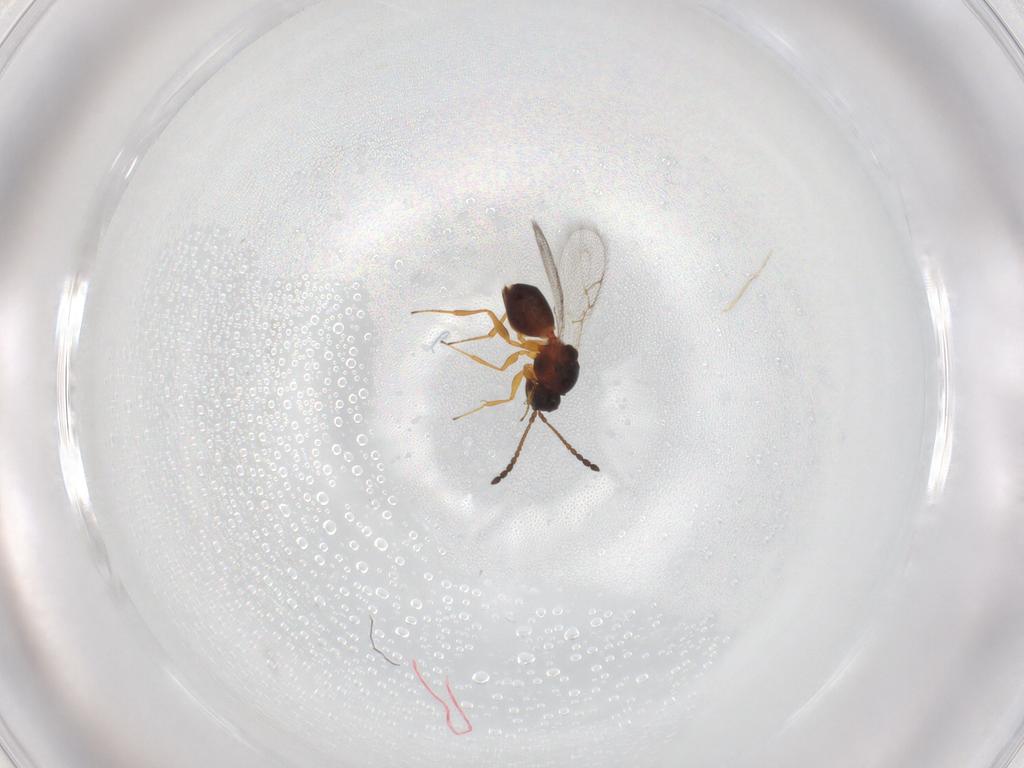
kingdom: Animalia
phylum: Arthropoda
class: Insecta
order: Hymenoptera
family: Figitidae
